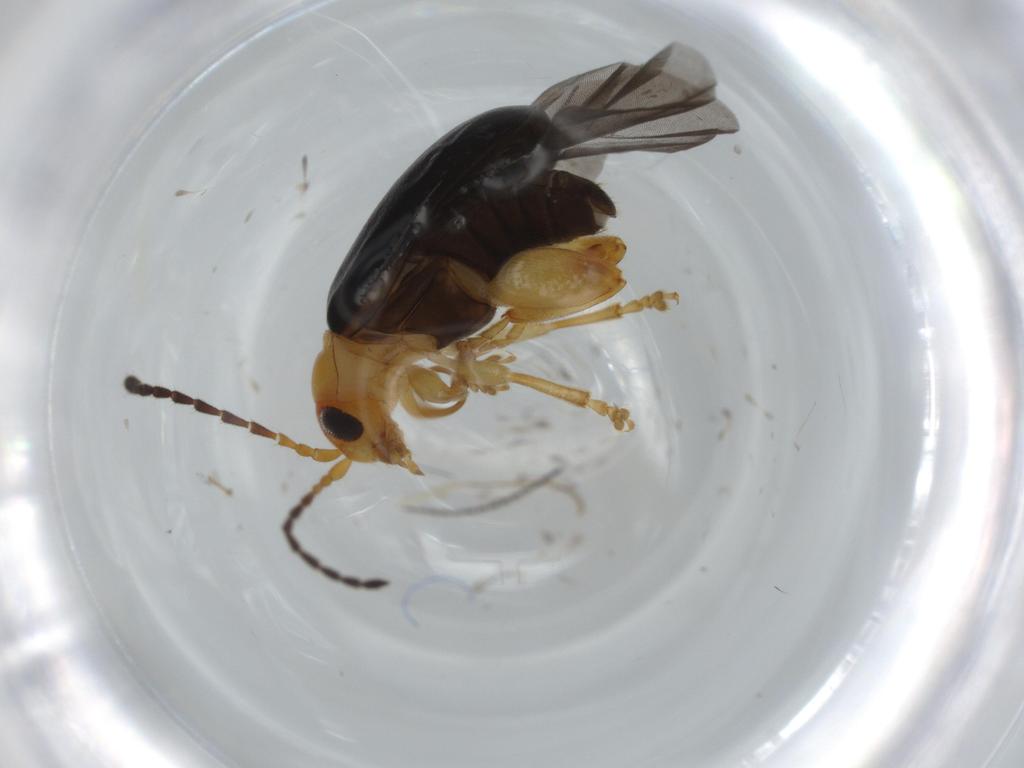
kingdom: Animalia
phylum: Arthropoda
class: Insecta
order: Coleoptera
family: Chrysomelidae
